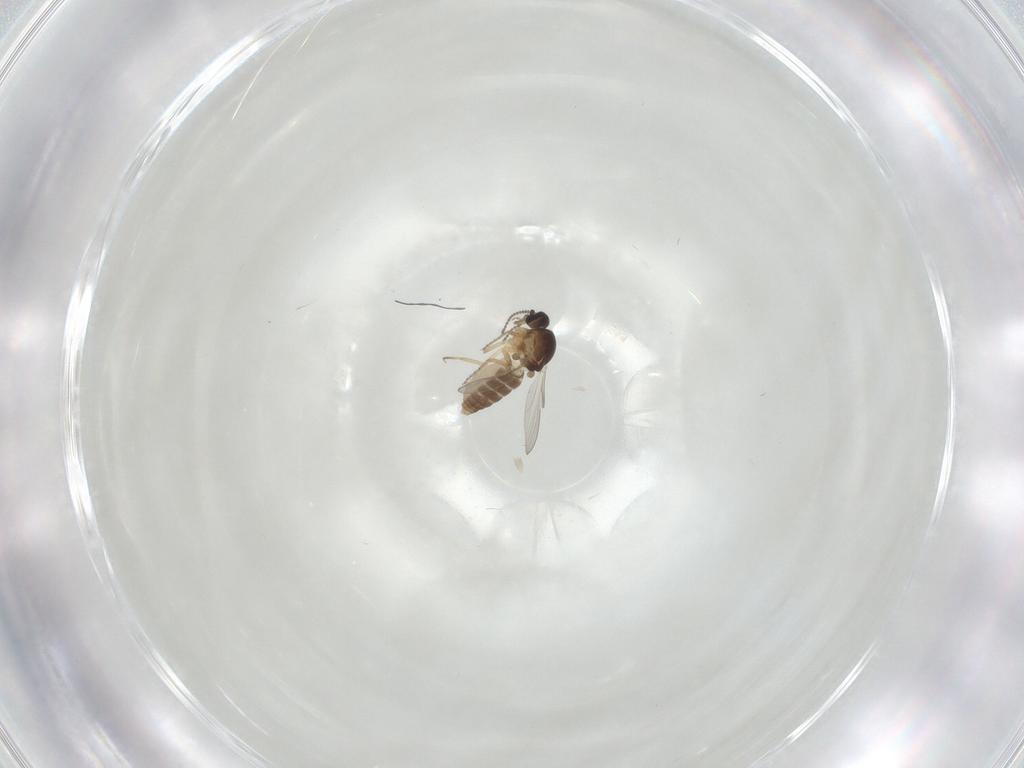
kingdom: Animalia
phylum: Arthropoda
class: Insecta
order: Diptera
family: Ceratopogonidae
